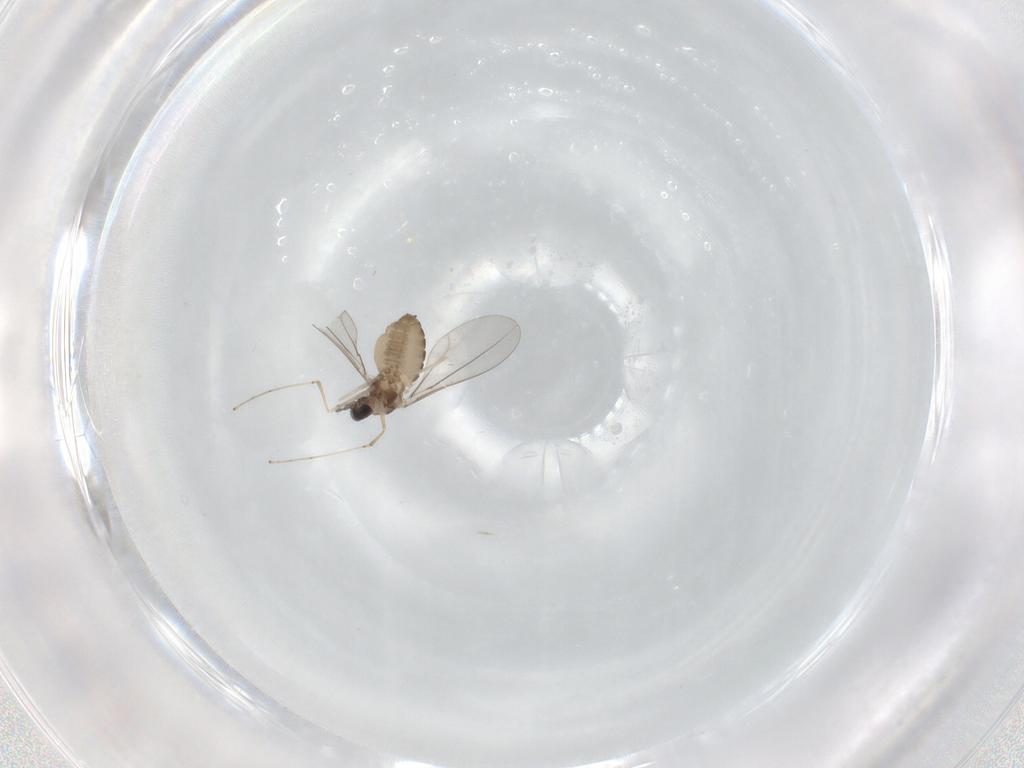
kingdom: Animalia
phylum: Arthropoda
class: Insecta
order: Diptera
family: Cecidomyiidae
